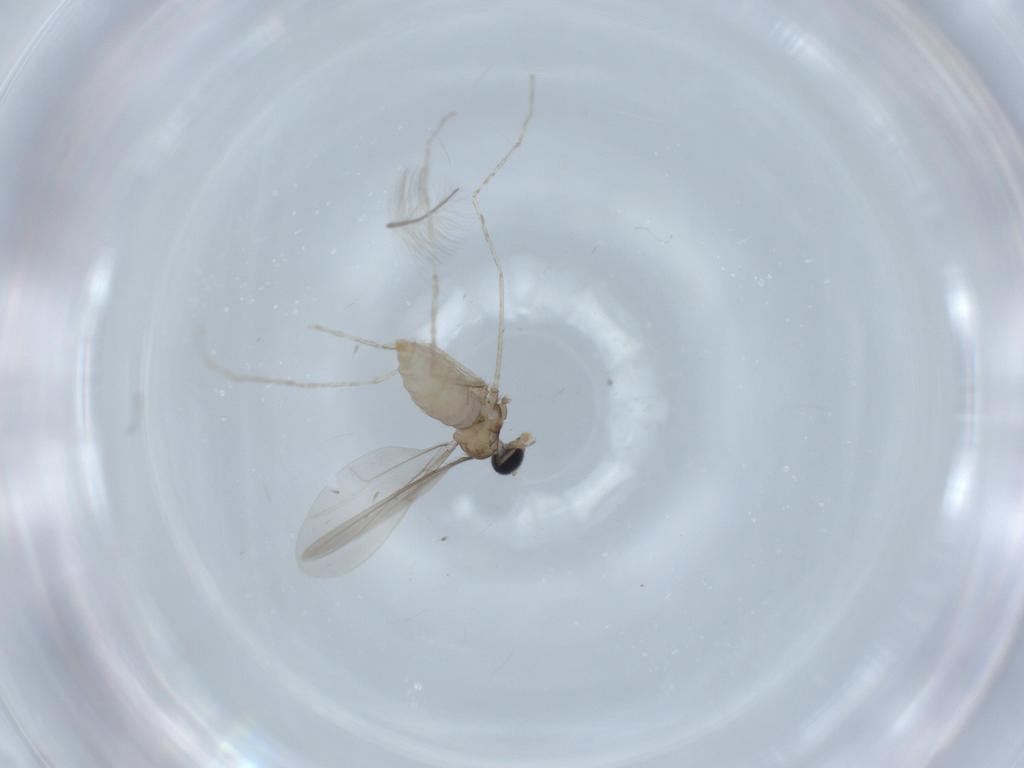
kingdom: Animalia
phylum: Arthropoda
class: Insecta
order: Diptera
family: Cecidomyiidae
